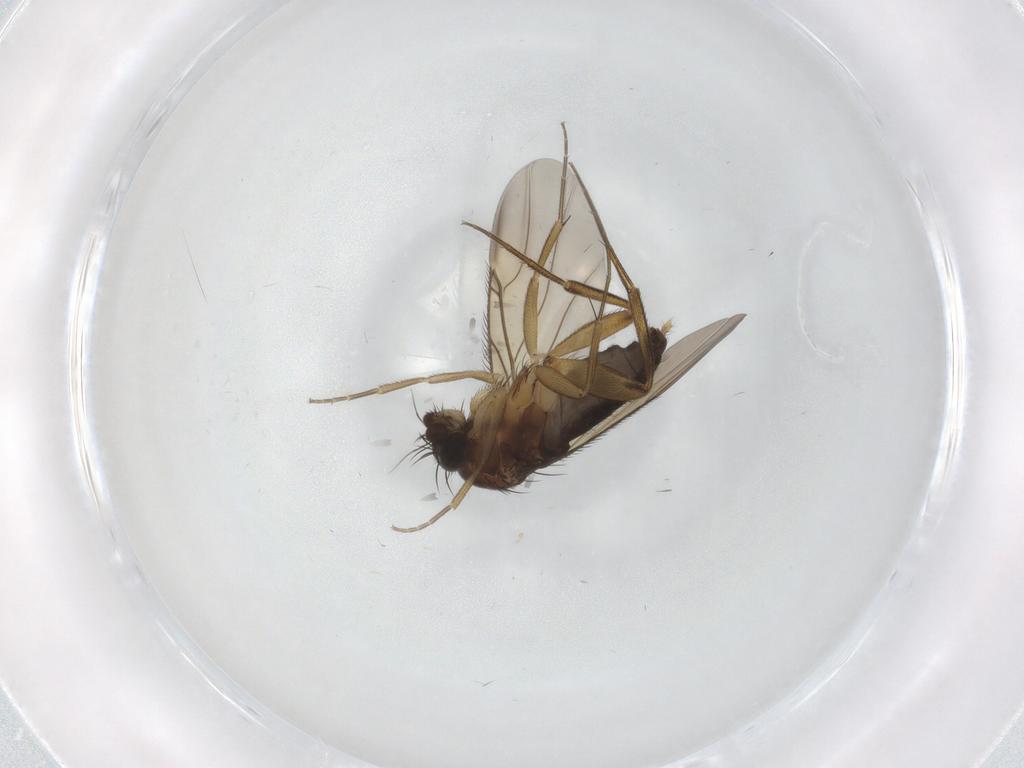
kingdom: Animalia
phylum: Arthropoda
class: Insecta
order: Diptera
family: Phoridae
